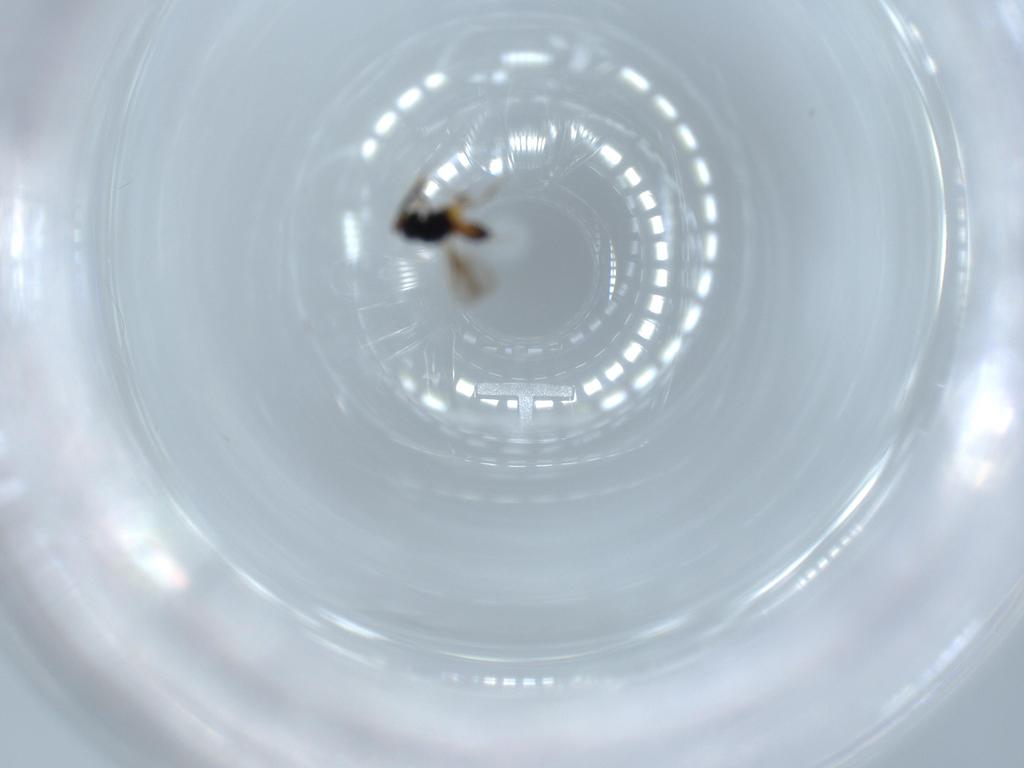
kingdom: Animalia
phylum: Arthropoda
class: Insecta
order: Hymenoptera
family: Scelionidae
